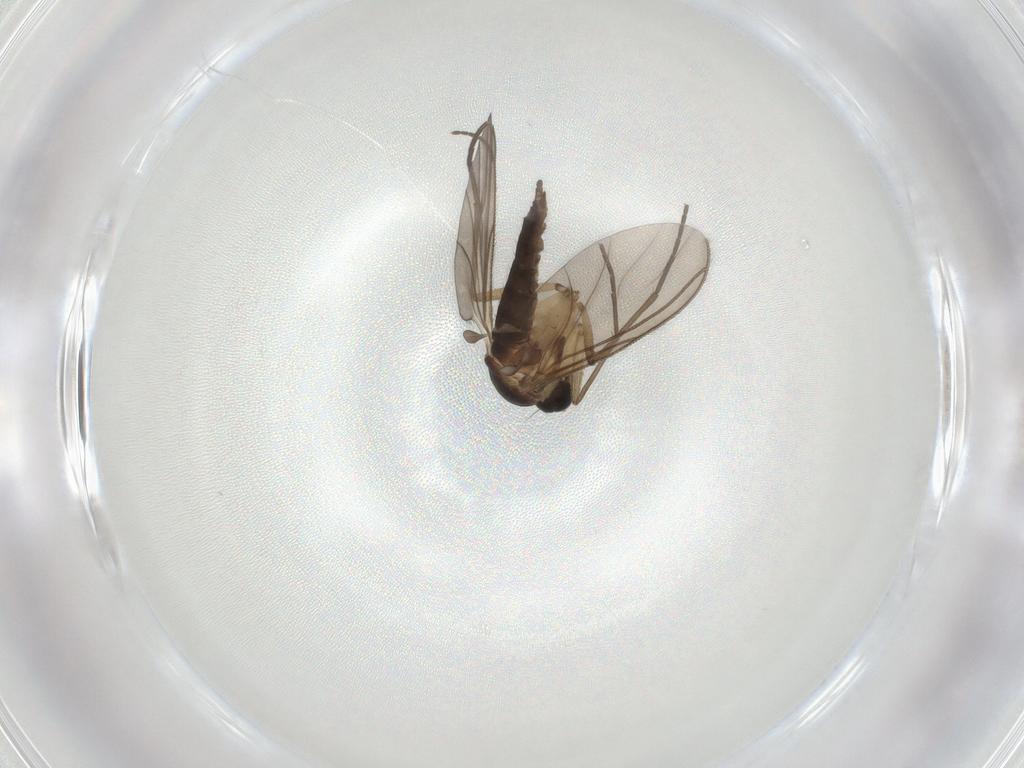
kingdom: Animalia
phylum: Arthropoda
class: Insecta
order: Diptera
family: Sciaridae
